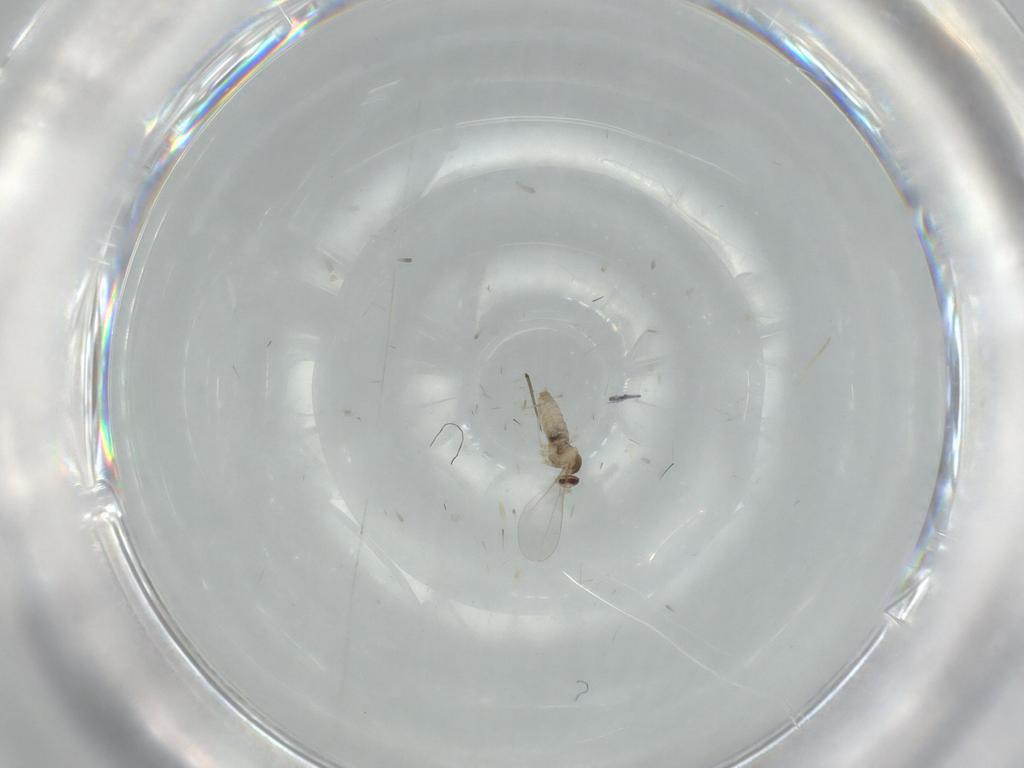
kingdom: Animalia
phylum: Arthropoda
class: Insecta
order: Diptera
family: Cecidomyiidae
